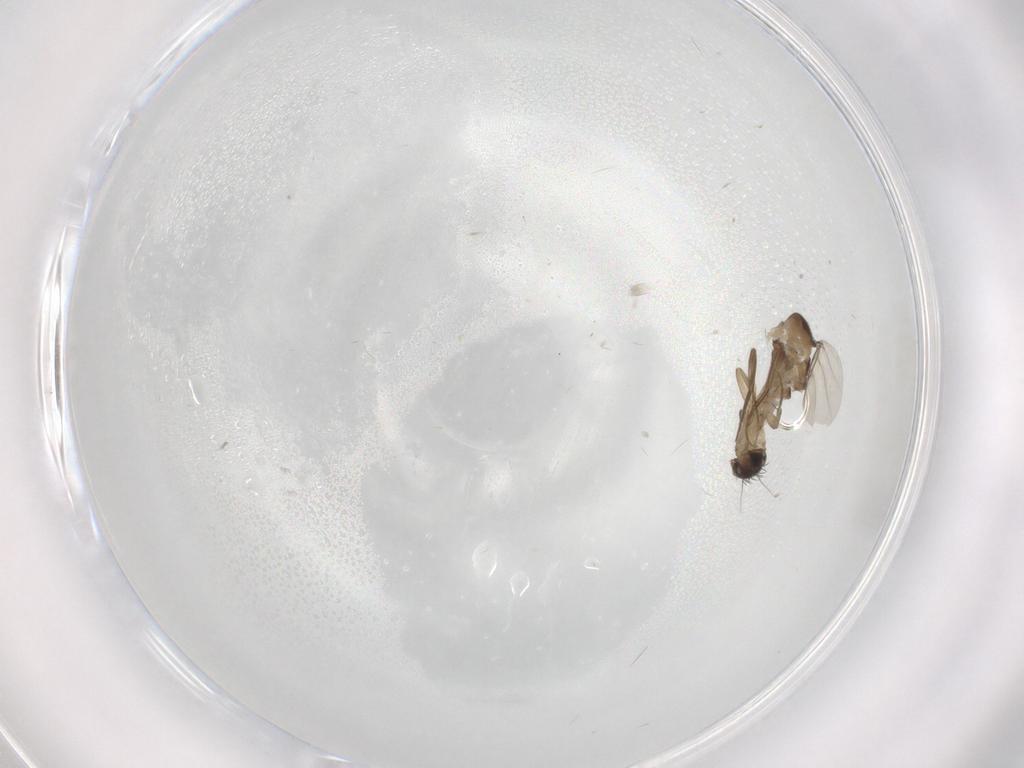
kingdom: Animalia
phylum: Arthropoda
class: Insecta
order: Diptera
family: Phoridae
